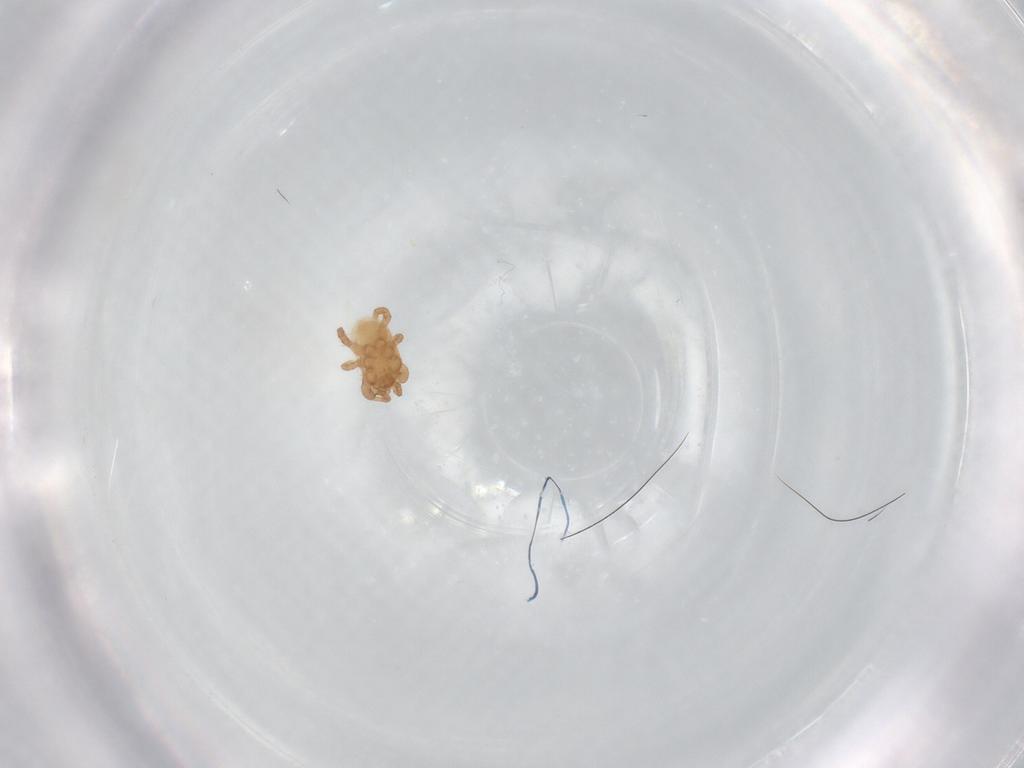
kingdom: Animalia
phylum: Arthropoda
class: Arachnida
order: Mesostigmata
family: Parasitidae
